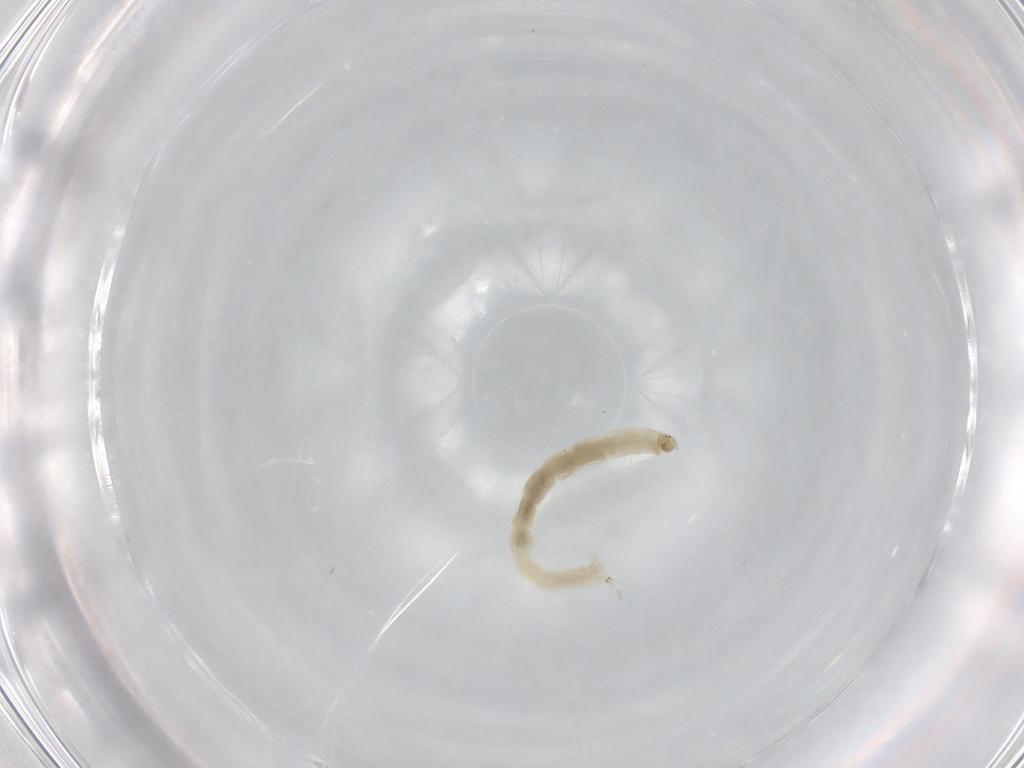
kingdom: Animalia
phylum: Arthropoda
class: Insecta
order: Diptera
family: Chironomidae
